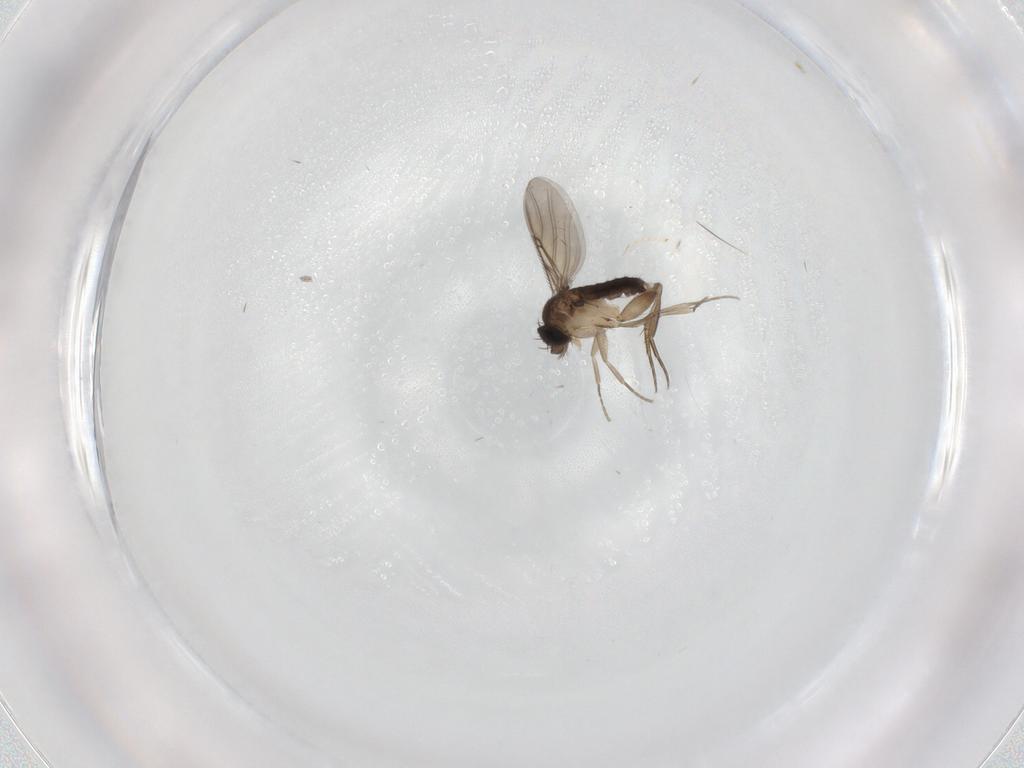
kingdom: Animalia
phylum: Arthropoda
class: Insecta
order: Diptera
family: Phoridae
